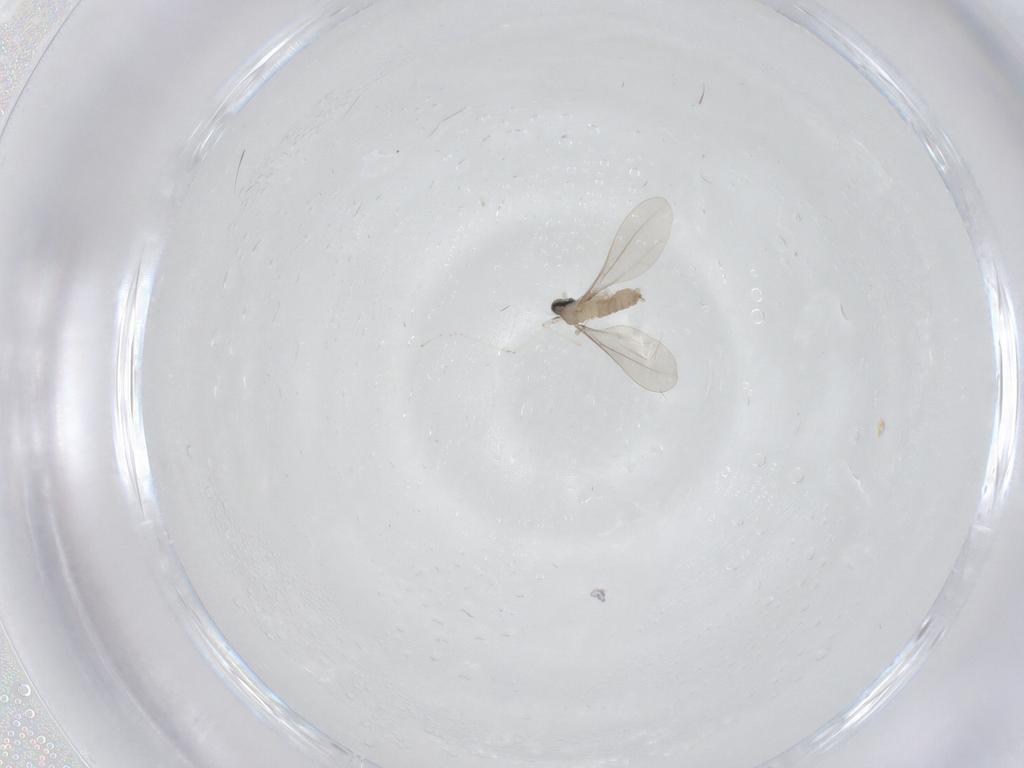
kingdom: Animalia
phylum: Arthropoda
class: Insecta
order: Diptera
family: Cecidomyiidae
